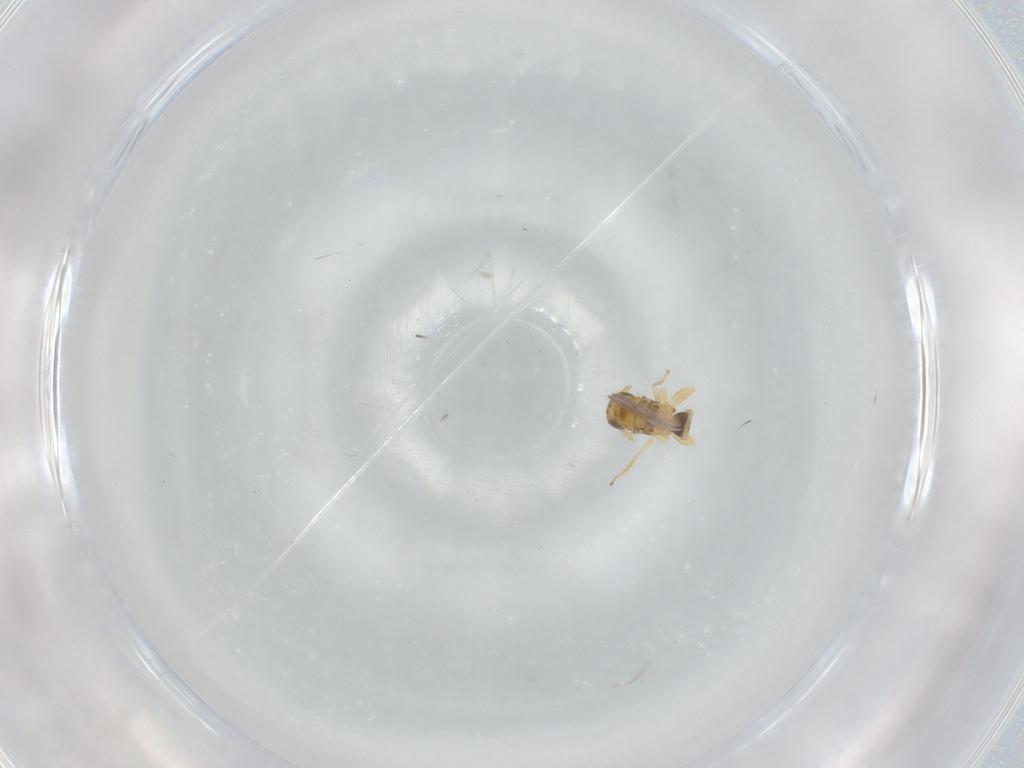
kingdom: Animalia
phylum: Arthropoda
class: Insecta
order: Hymenoptera
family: Torymidae
